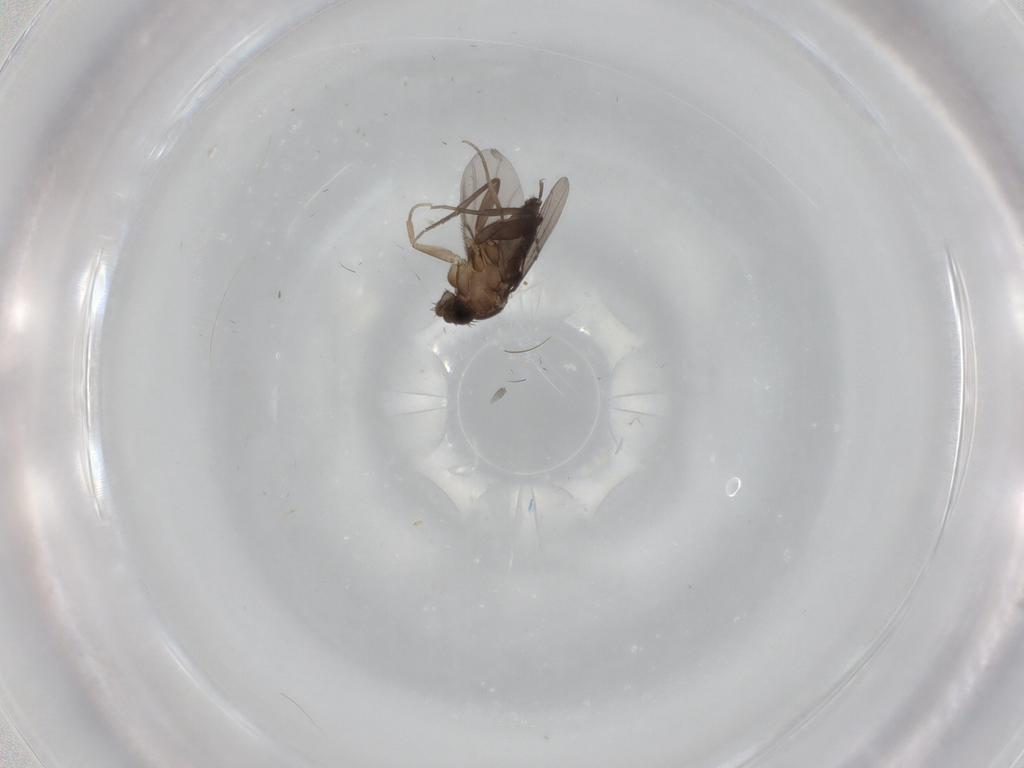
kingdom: Animalia
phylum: Arthropoda
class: Insecta
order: Diptera
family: Phoridae
